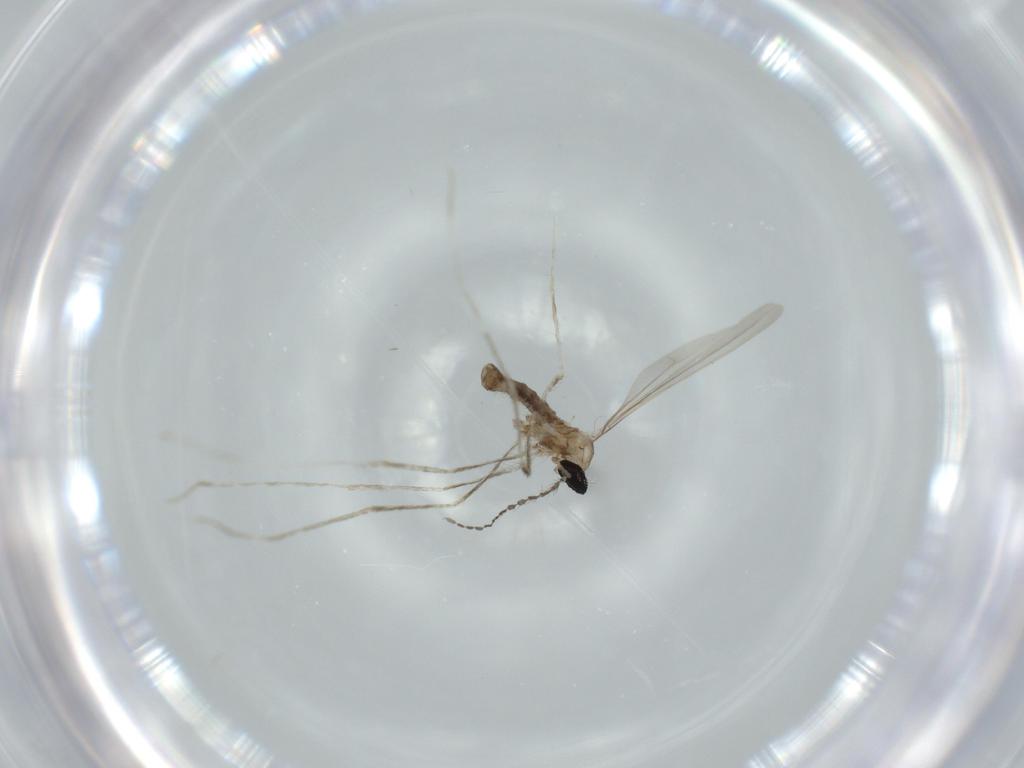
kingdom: Animalia
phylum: Arthropoda
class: Insecta
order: Diptera
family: Cecidomyiidae
